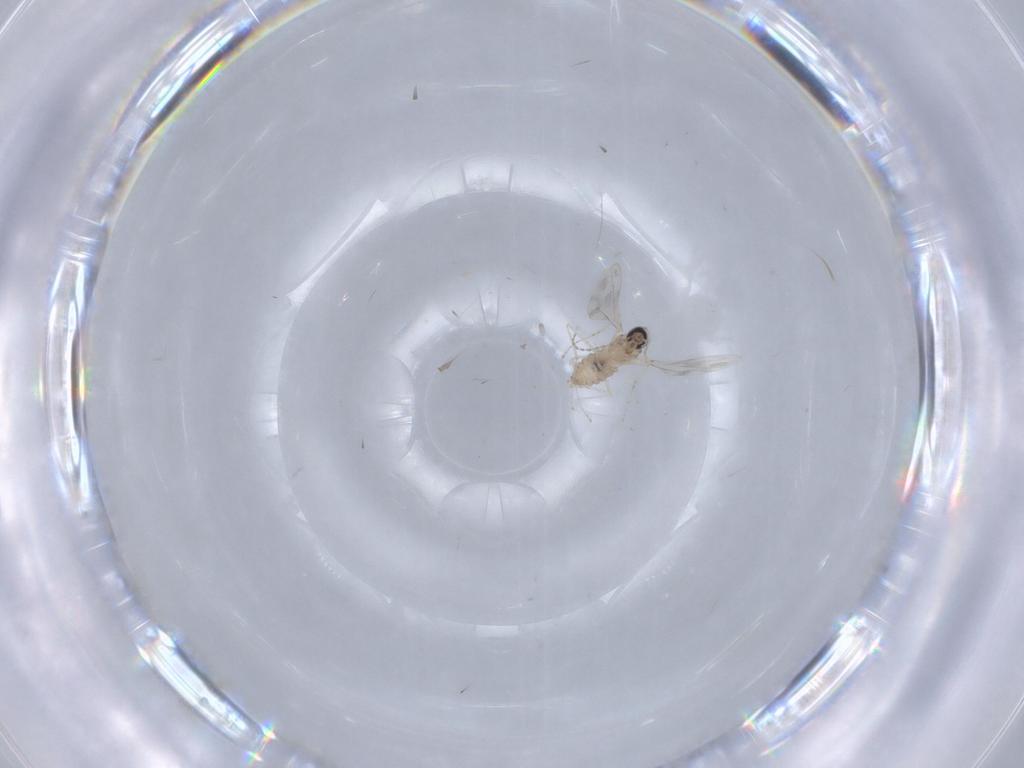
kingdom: Animalia
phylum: Arthropoda
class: Insecta
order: Diptera
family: Drosophilidae
